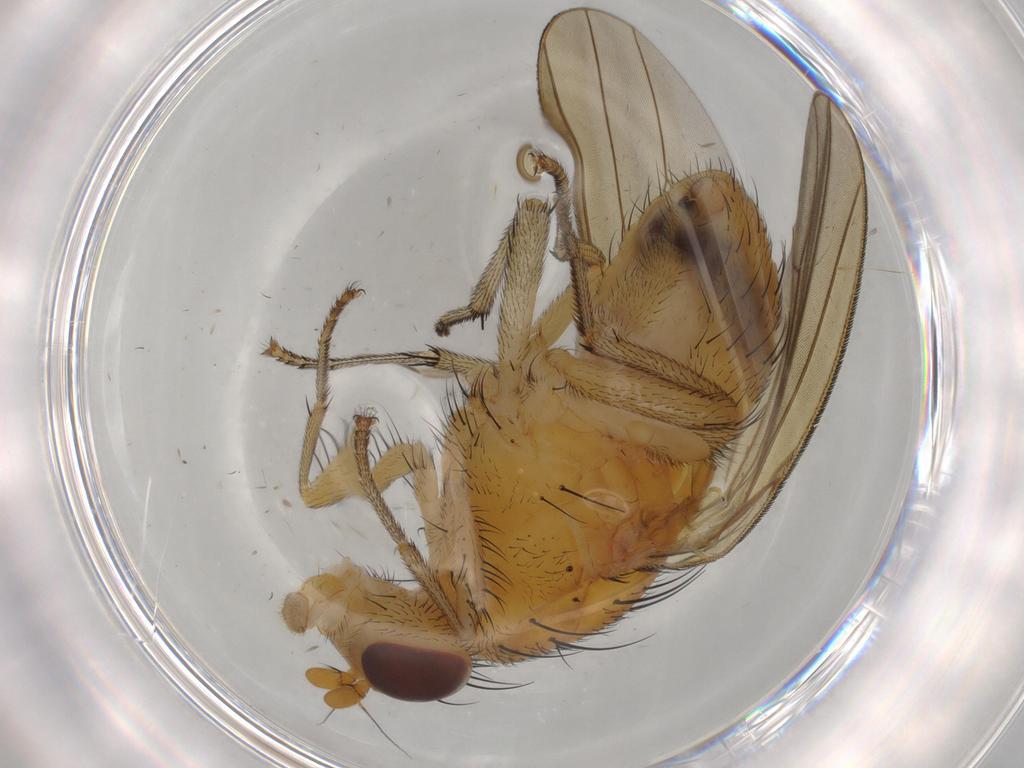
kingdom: Animalia
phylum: Arthropoda
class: Insecta
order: Diptera
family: Phoridae
